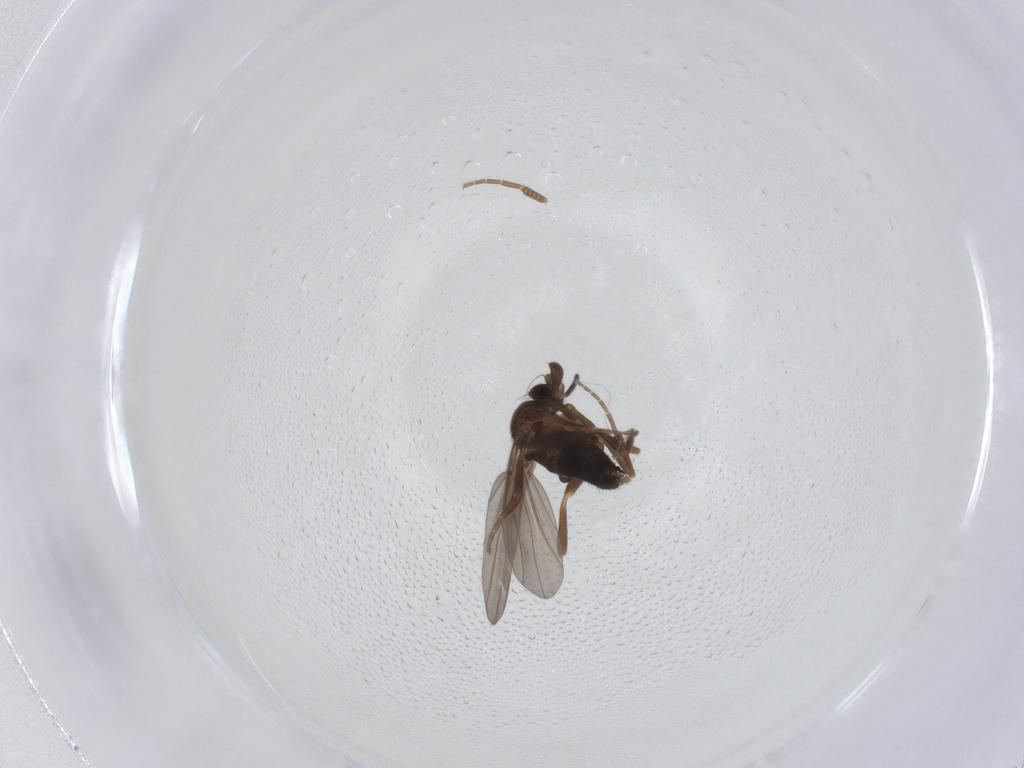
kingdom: Animalia
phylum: Arthropoda
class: Insecta
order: Diptera
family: Phoridae
